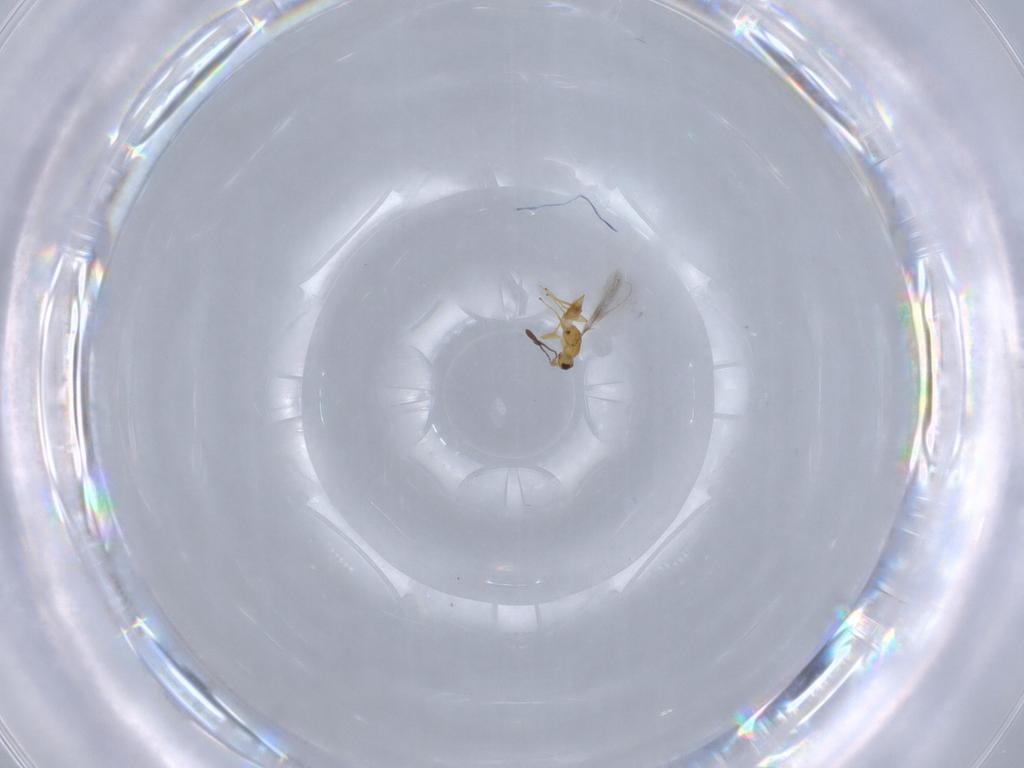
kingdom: Animalia
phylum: Arthropoda
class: Insecta
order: Hymenoptera
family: Mymaridae
